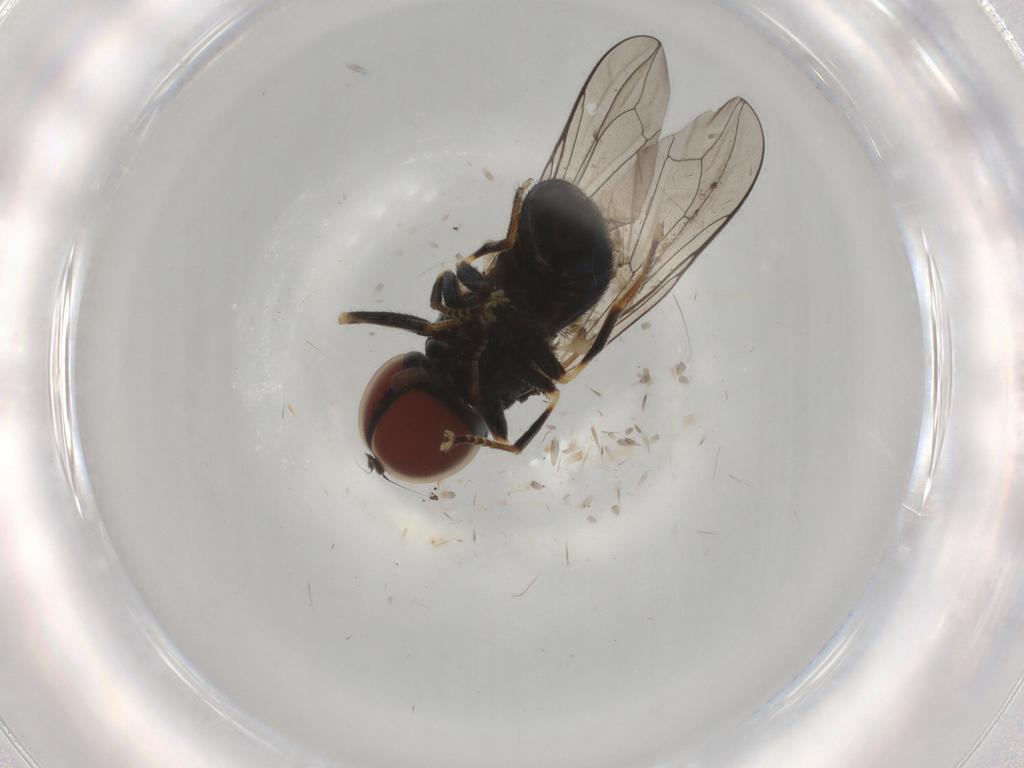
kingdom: Animalia
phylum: Arthropoda
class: Insecta
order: Diptera
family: Pipunculidae
